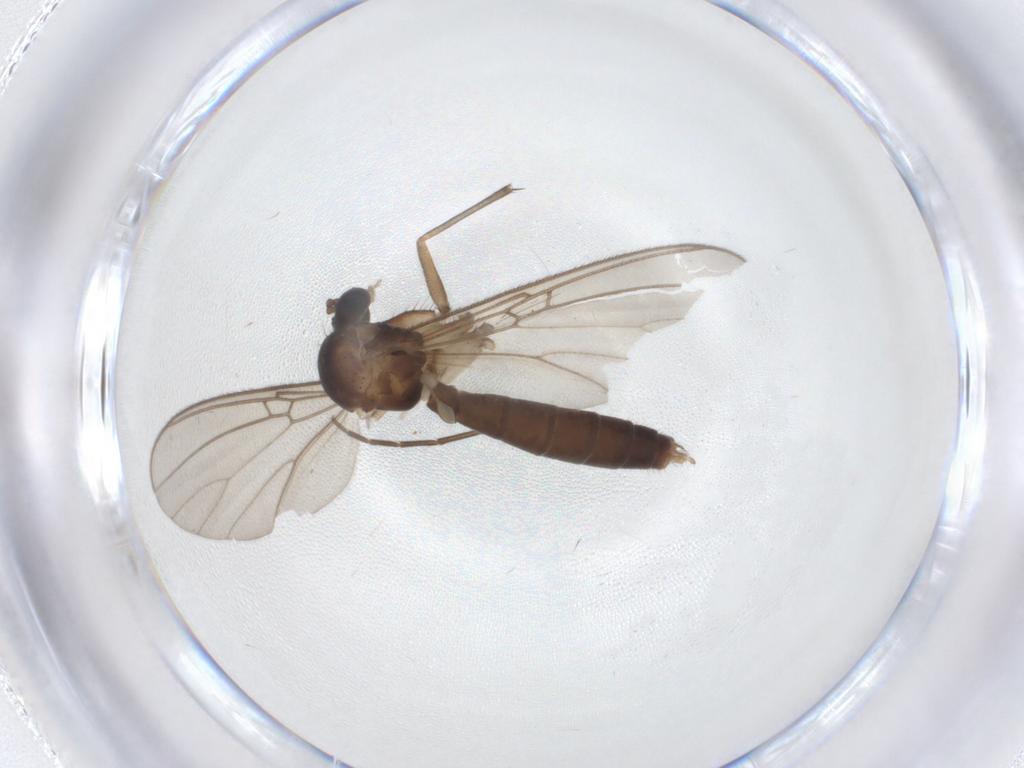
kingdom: Animalia
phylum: Arthropoda
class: Insecta
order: Diptera
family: Mycetophilidae
